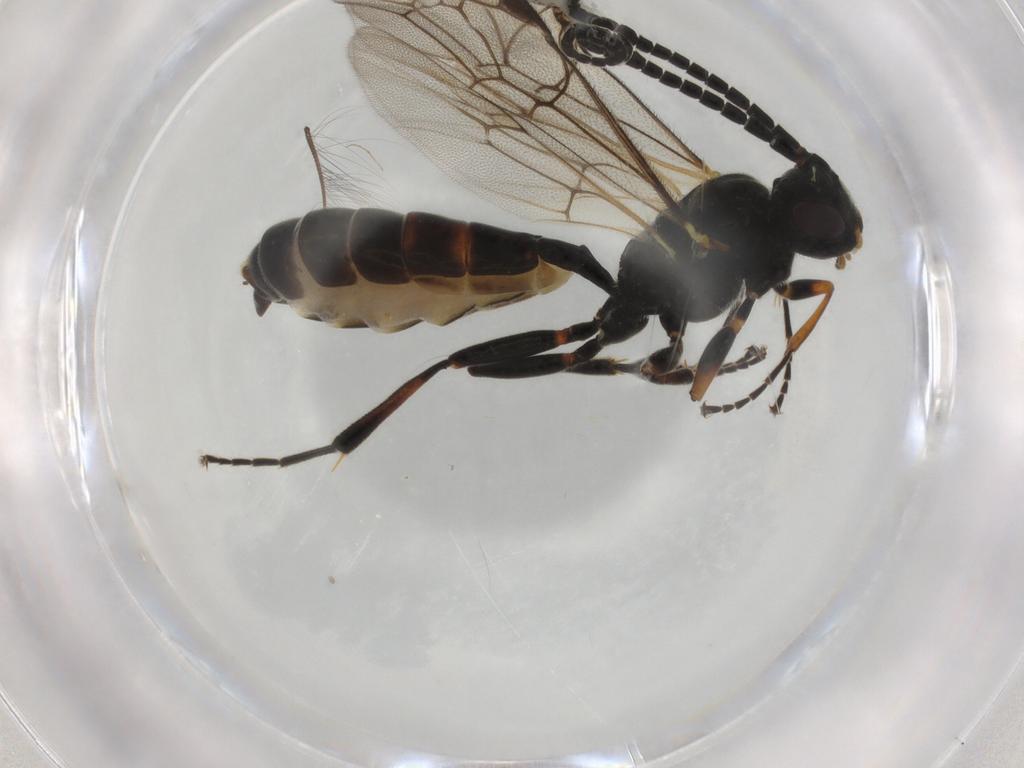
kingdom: Animalia
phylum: Arthropoda
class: Insecta
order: Hymenoptera
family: Ichneumonidae
